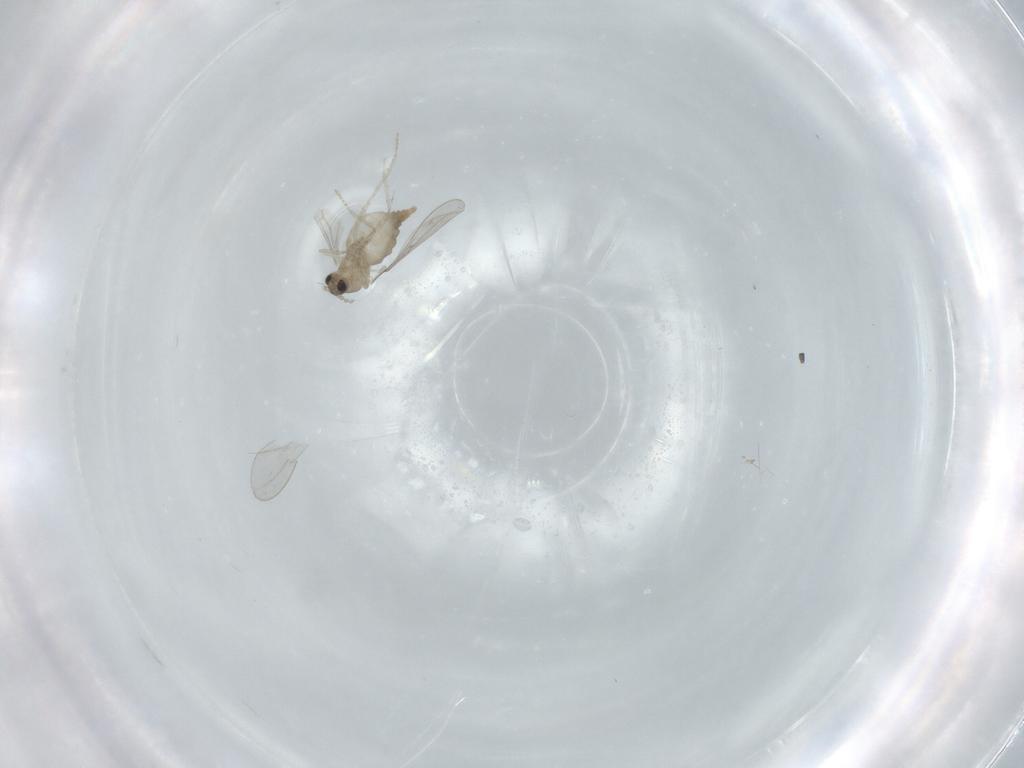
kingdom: Animalia
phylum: Arthropoda
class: Insecta
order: Diptera
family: Cecidomyiidae
